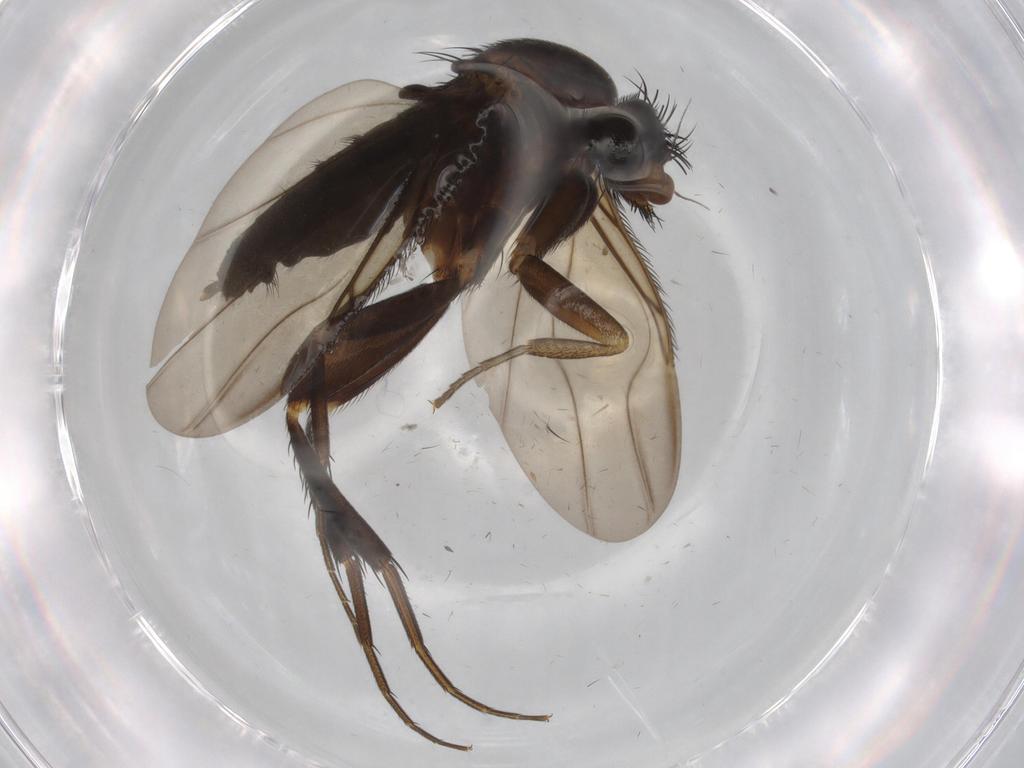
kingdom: Animalia
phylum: Arthropoda
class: Insecta
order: Diptera
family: Phoridae
